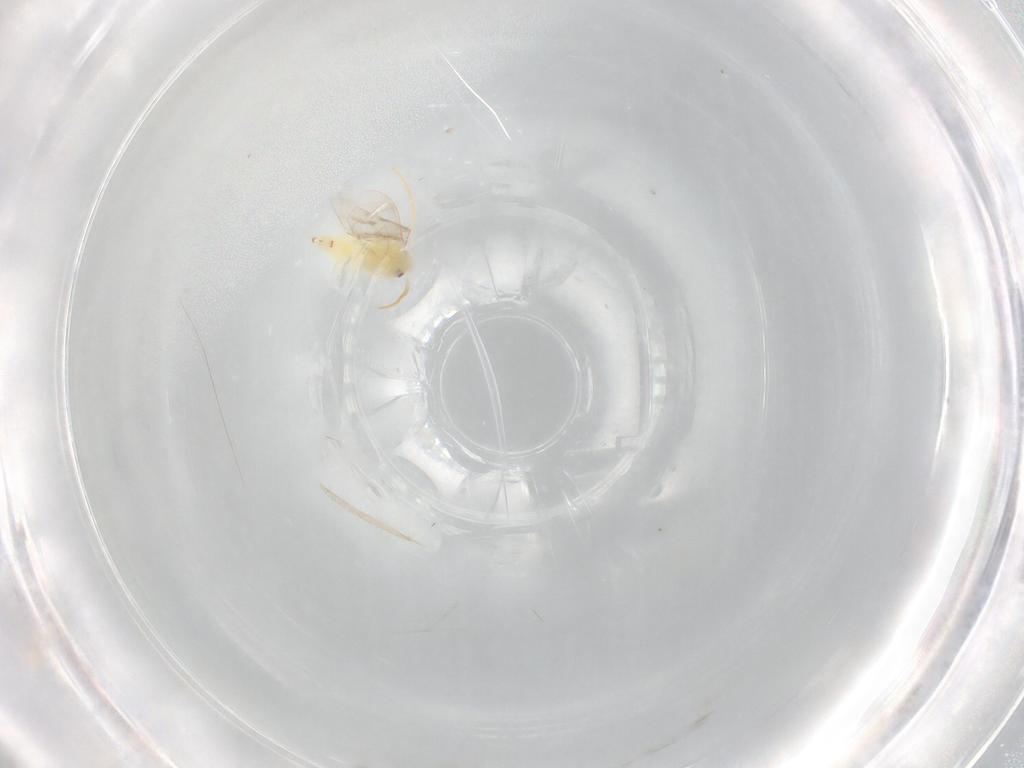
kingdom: Animalia
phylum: Arthropoda
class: Insecta
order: Hemiptera
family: Aleyrodidae
